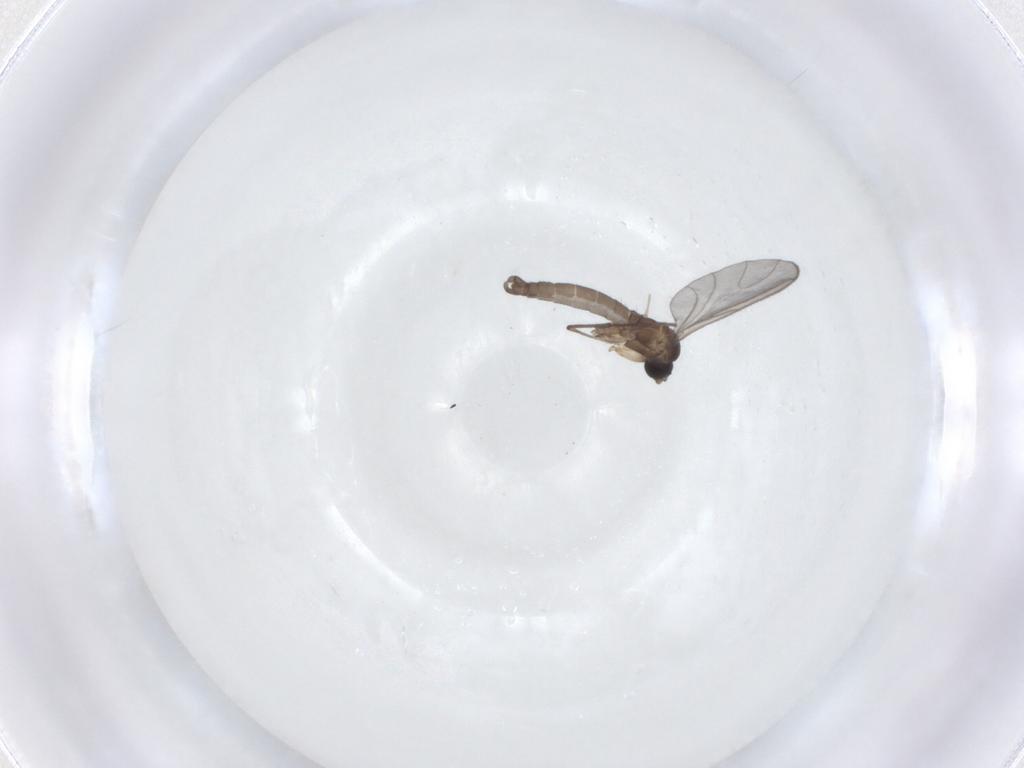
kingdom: Animalia
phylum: Arthropoda
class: Insecta
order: Diptera
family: Sciaridae
